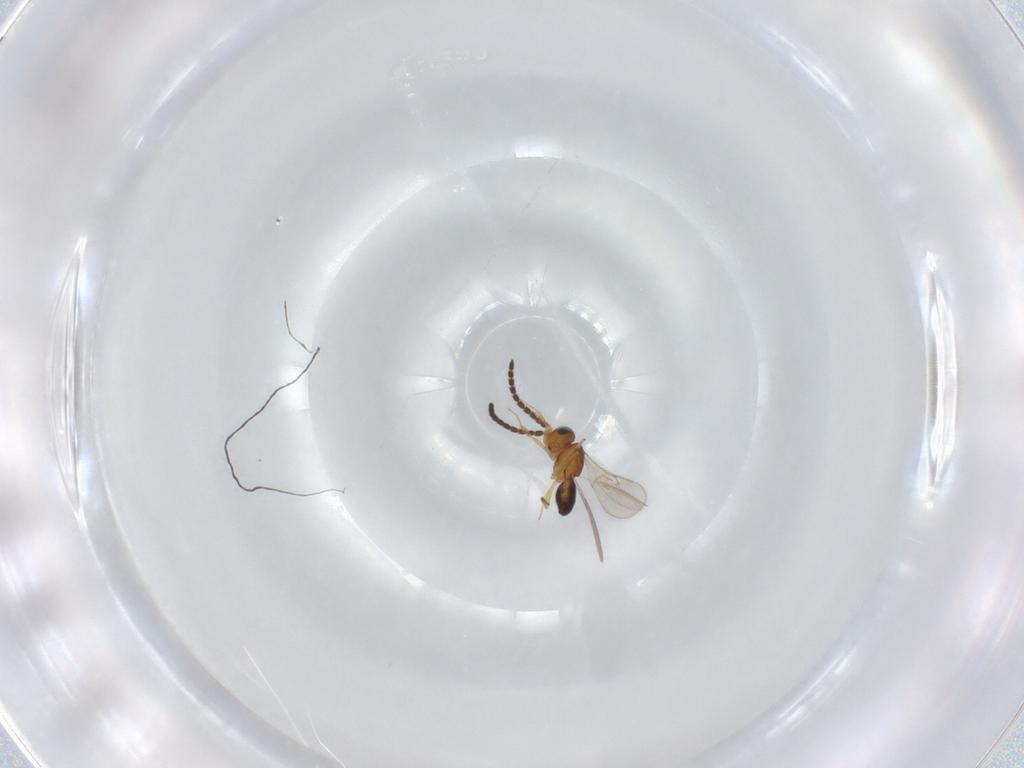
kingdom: Animalia
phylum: Arthropoda
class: Insecta
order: Hymenoptera
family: Scelionidae
